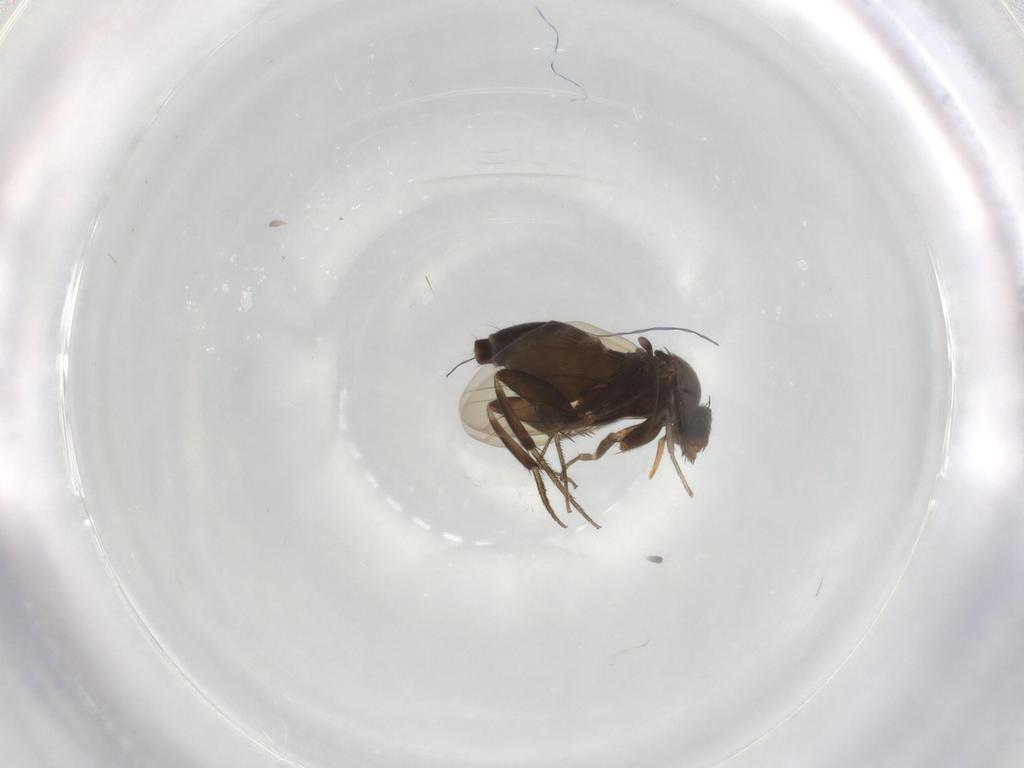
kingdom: Animalia
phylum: Arthropoda
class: Insecta
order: Diptera
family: Phoridae
